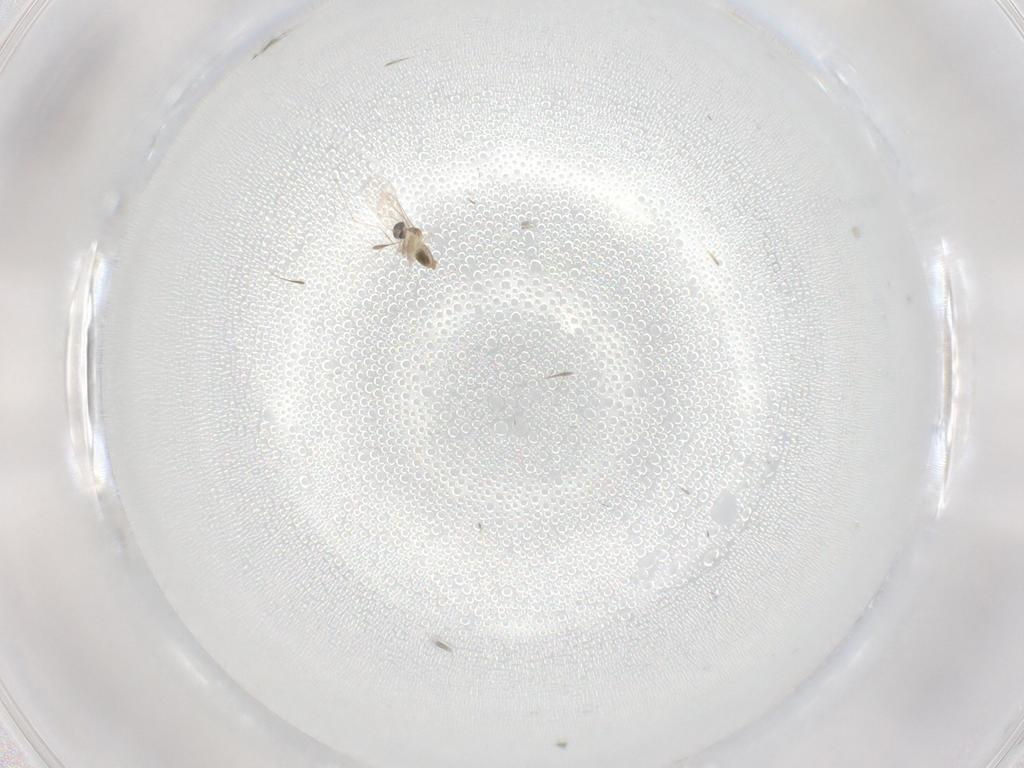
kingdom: Animalia
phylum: Arthropoda
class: Insecta
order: Diptera
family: Cecidomyiidae
